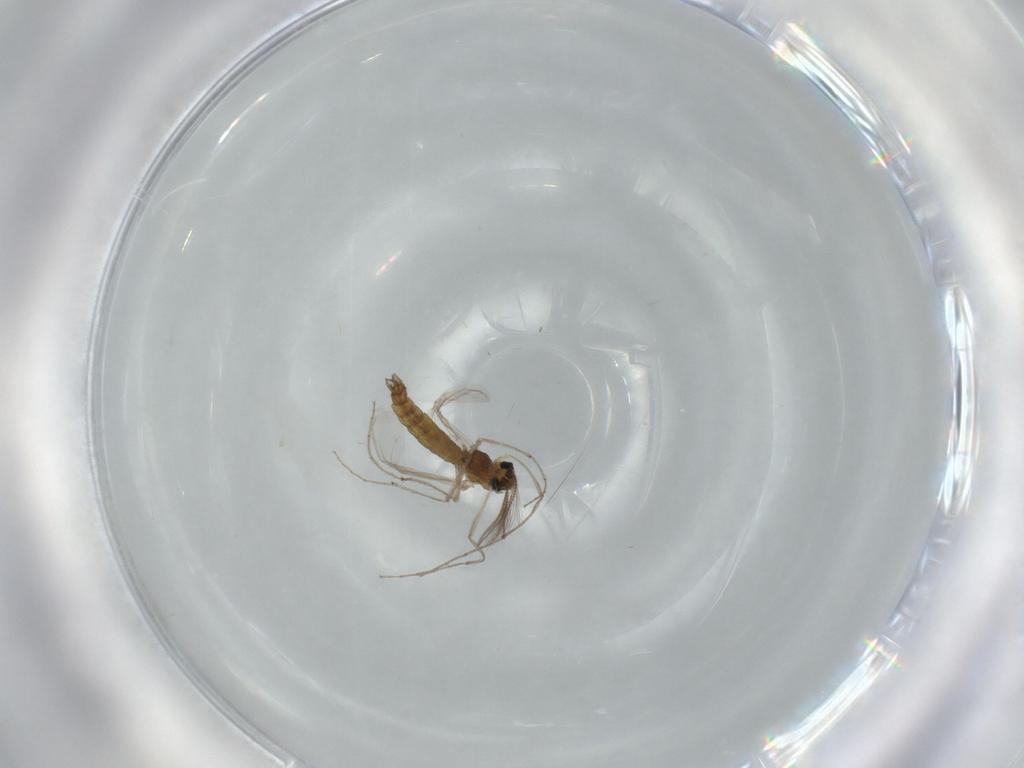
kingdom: Animalia
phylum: Arthropoda
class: Insecta
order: Diptera
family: Chironomidae
